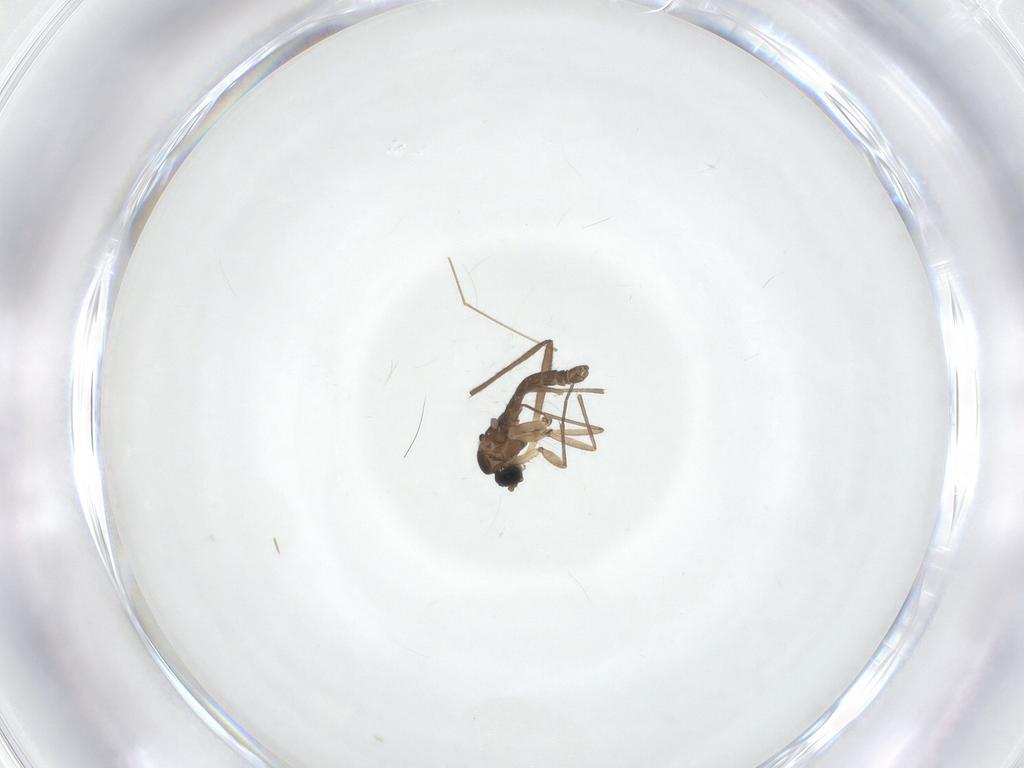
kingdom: Animalia
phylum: Arthropoda
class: Insecta
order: Diptera
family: Sciaridae
